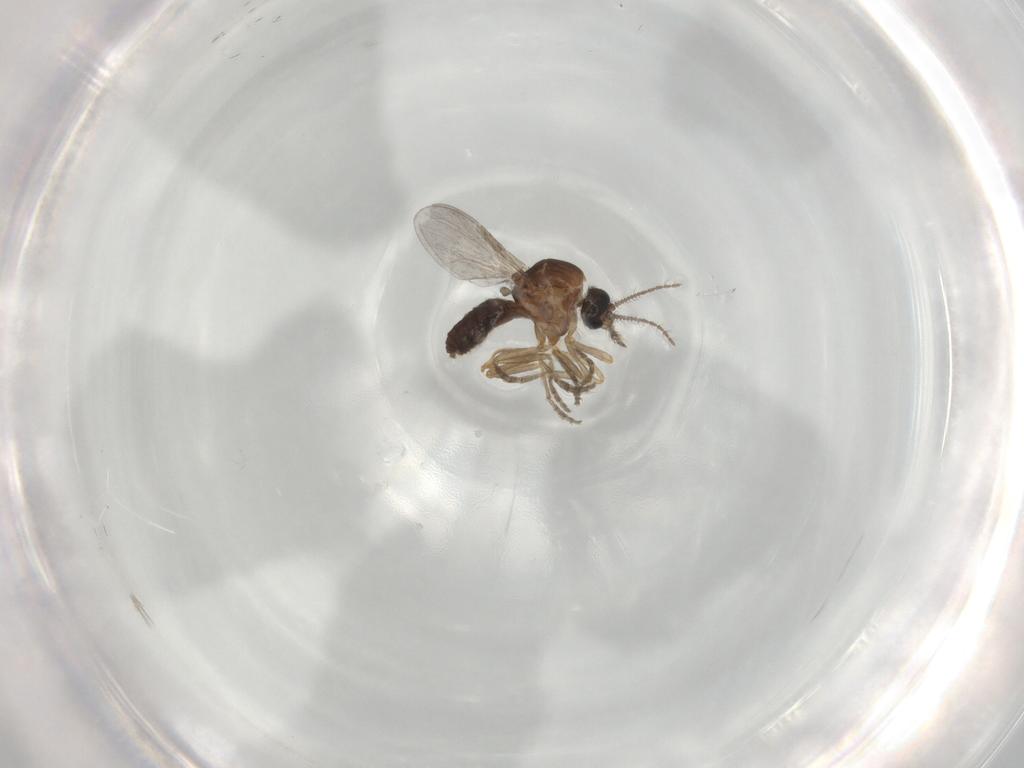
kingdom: Animalia
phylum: Arthropoda
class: Insecta
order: Diptera
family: Ceratopogonidae
